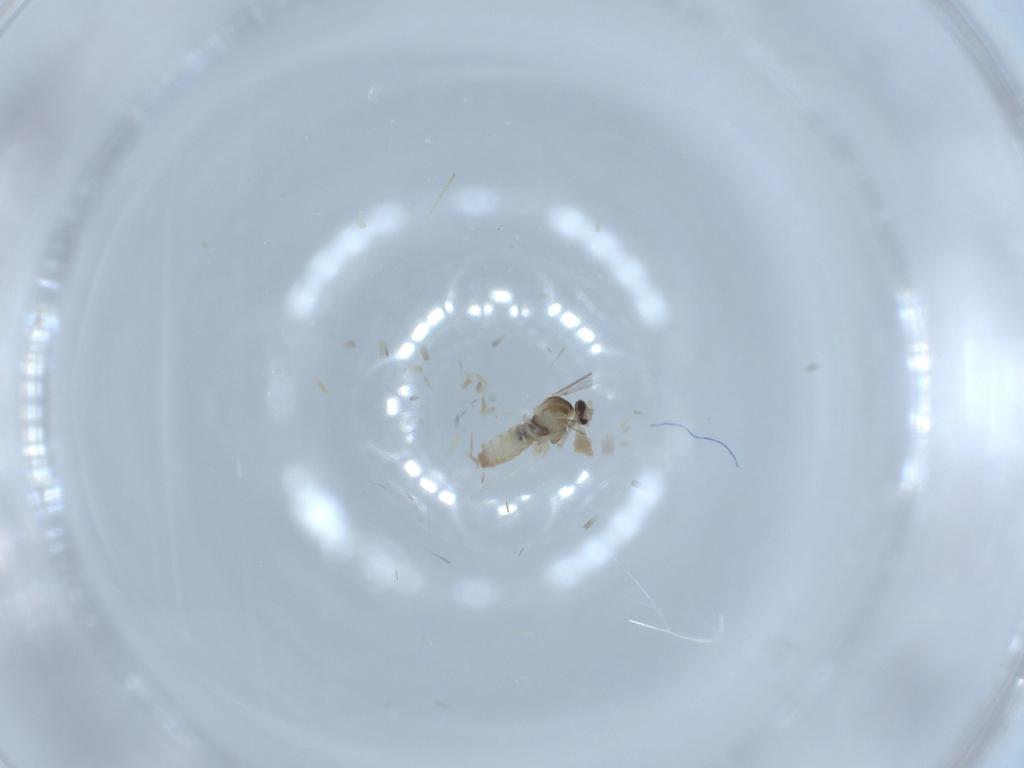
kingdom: Animalia
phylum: Arthropoda
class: Insecta
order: Diptera
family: Cecidomyiidae
